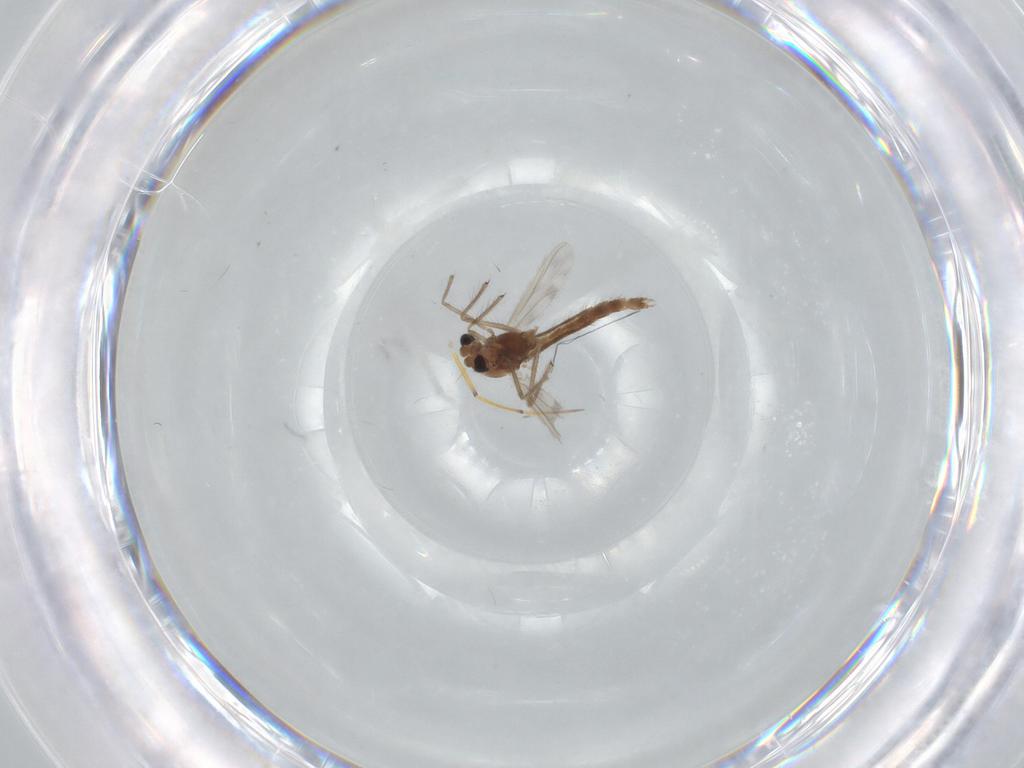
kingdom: Animalia
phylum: Arthropoda
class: Insecta
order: Diptera
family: Chironomidae
